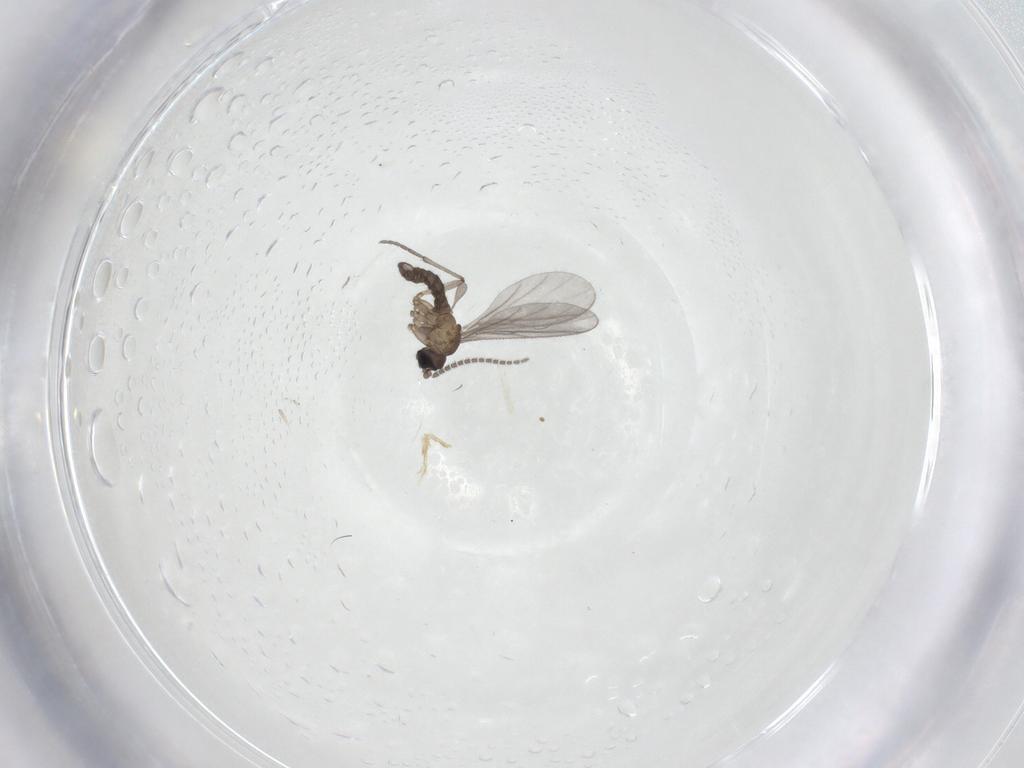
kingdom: Animalia
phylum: Arthropoda
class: Insecta
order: Diptera
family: Sciaridae
